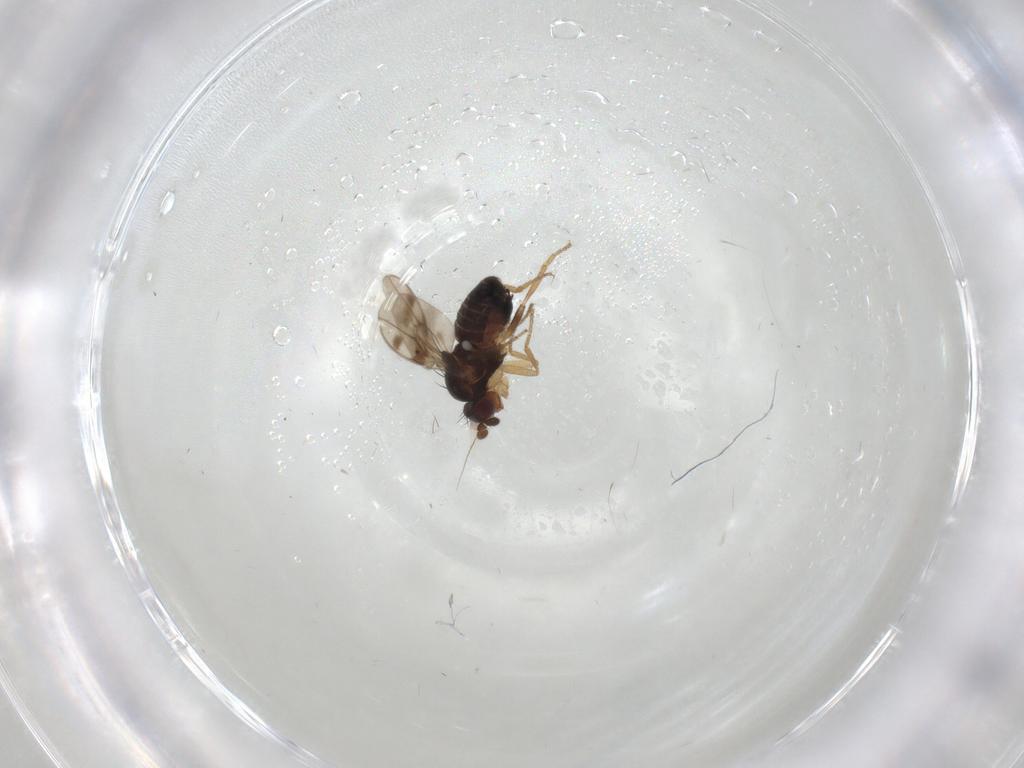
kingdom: Animalia
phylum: Arthropoda
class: Insecta
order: Diptera
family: Sphaeroceridae
